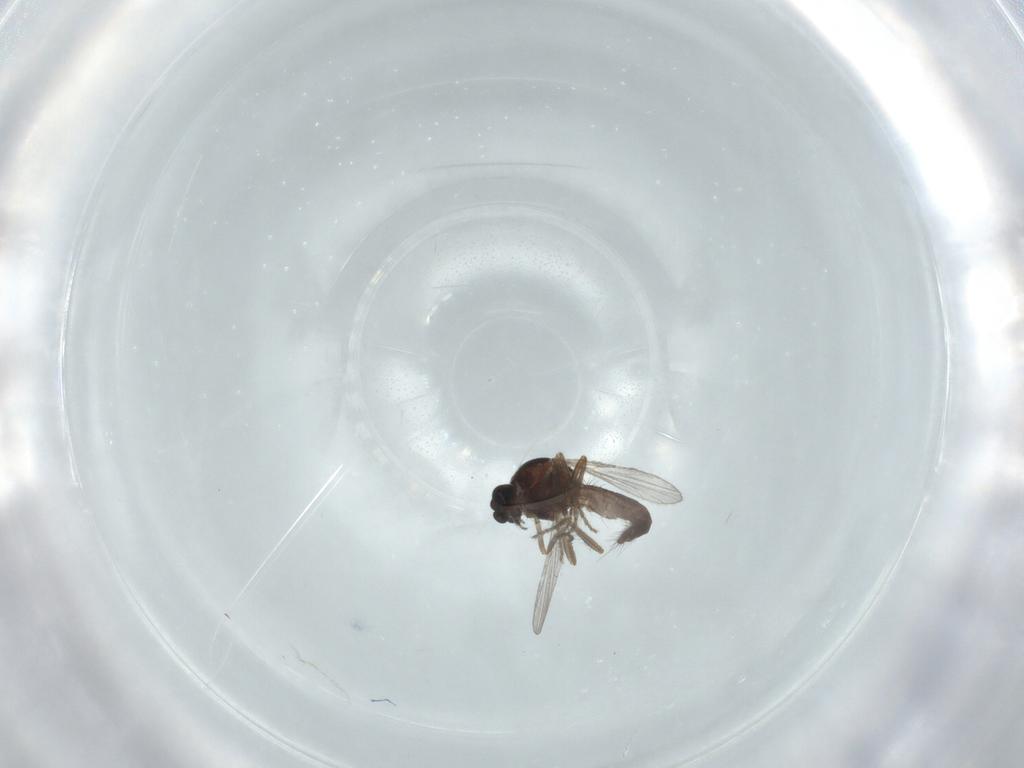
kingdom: Animalia
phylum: Arthropoda
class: Insecta
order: Diptera
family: Ceratopogonidae
